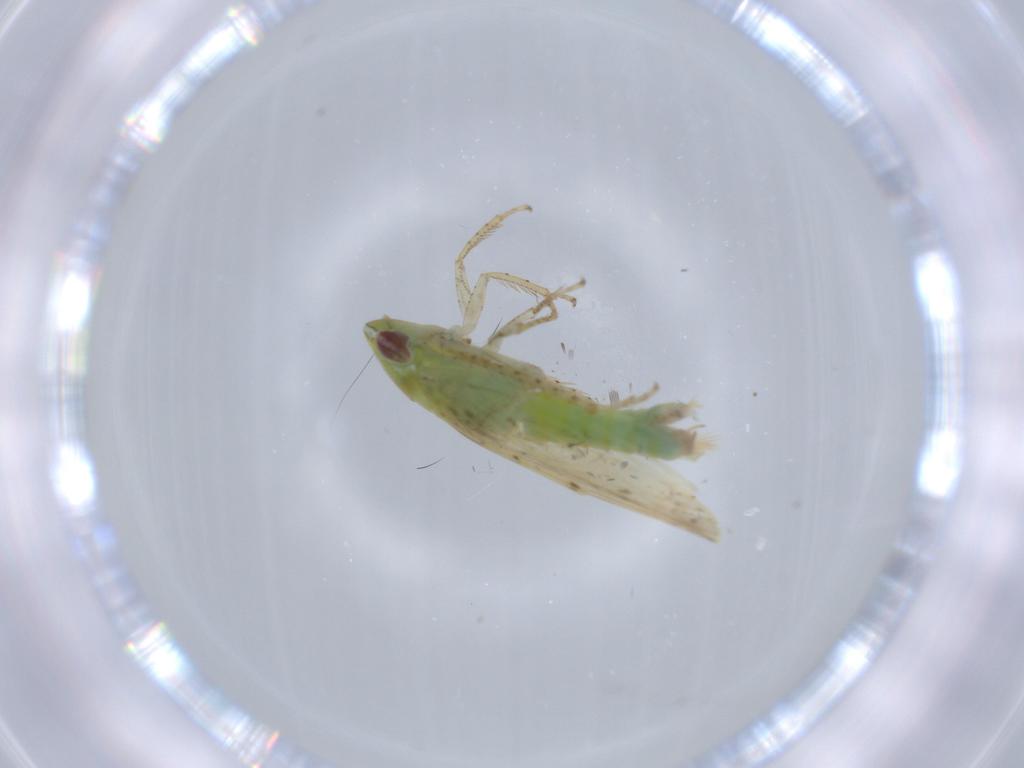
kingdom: Animalia
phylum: Arthropoda
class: Insecta
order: Hemiptera
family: Cicadellidae
